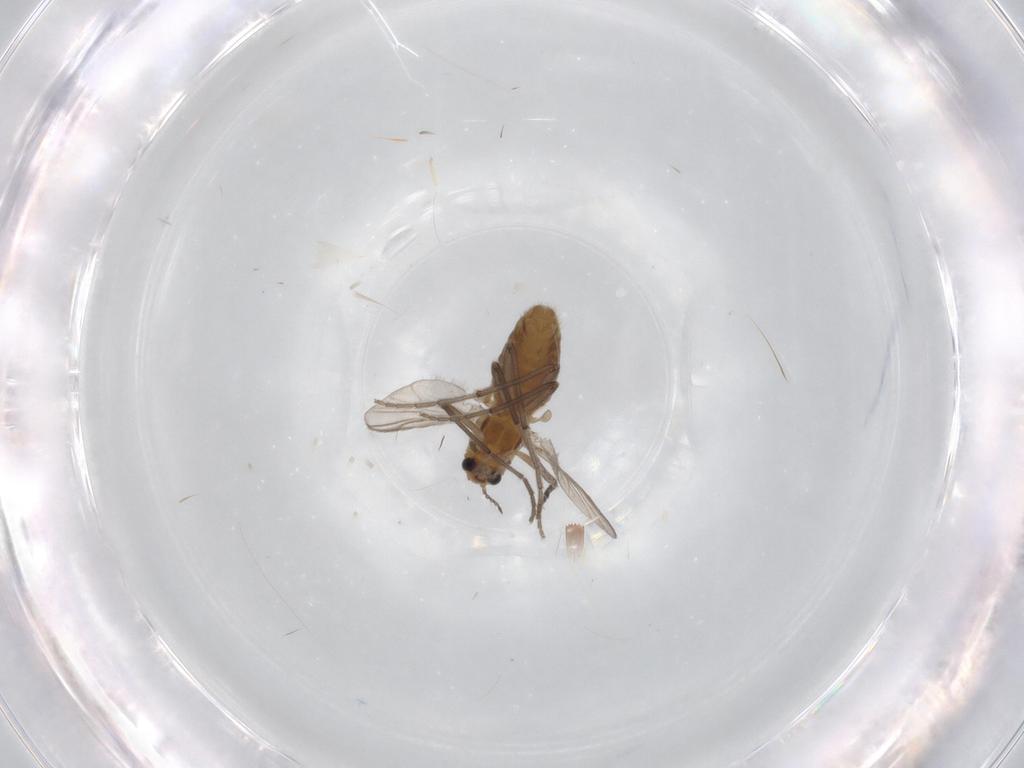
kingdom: Animalia
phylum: Arthropoda
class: Insecta
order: Diptera
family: Chironomidae
